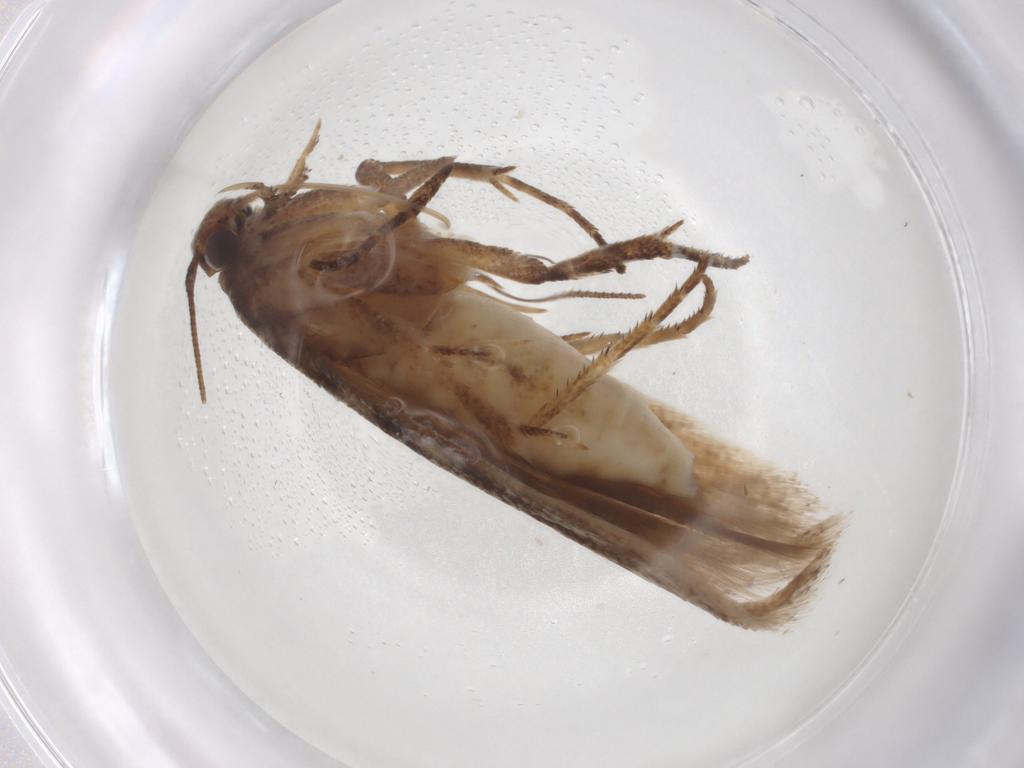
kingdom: Animalia
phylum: Arthropoda
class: Insecta
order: Lepidoptera
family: Gelechiidae
